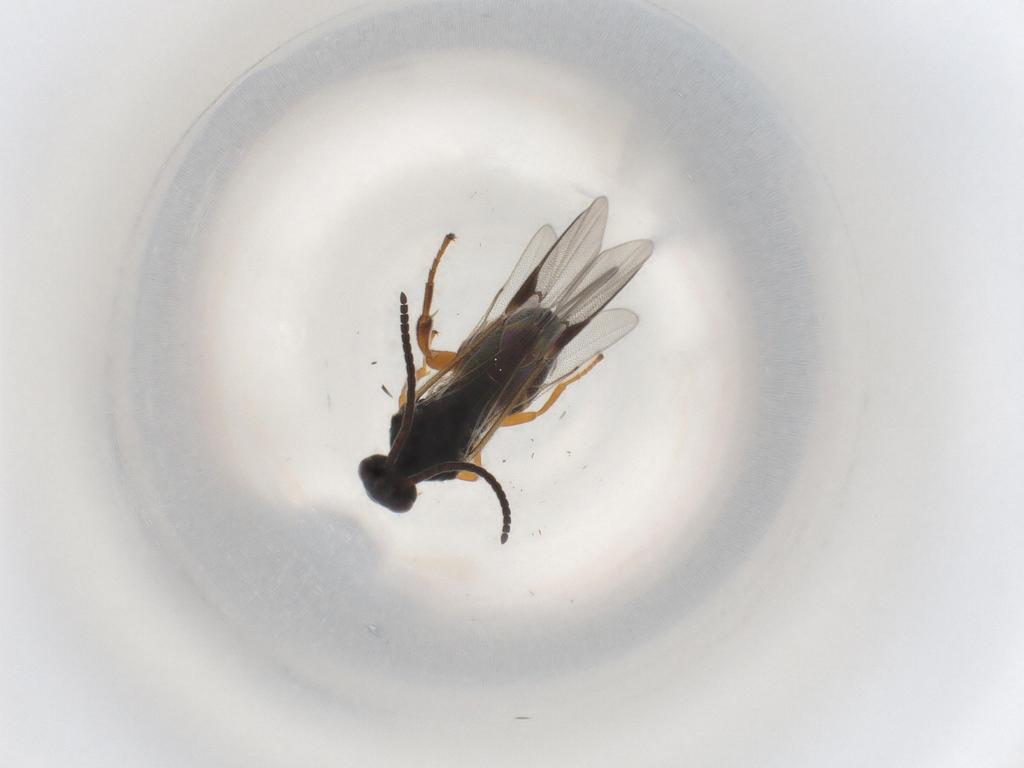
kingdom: Animalia
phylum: Arthropoda
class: Insecta
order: Hymenoptera
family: Braconidae
